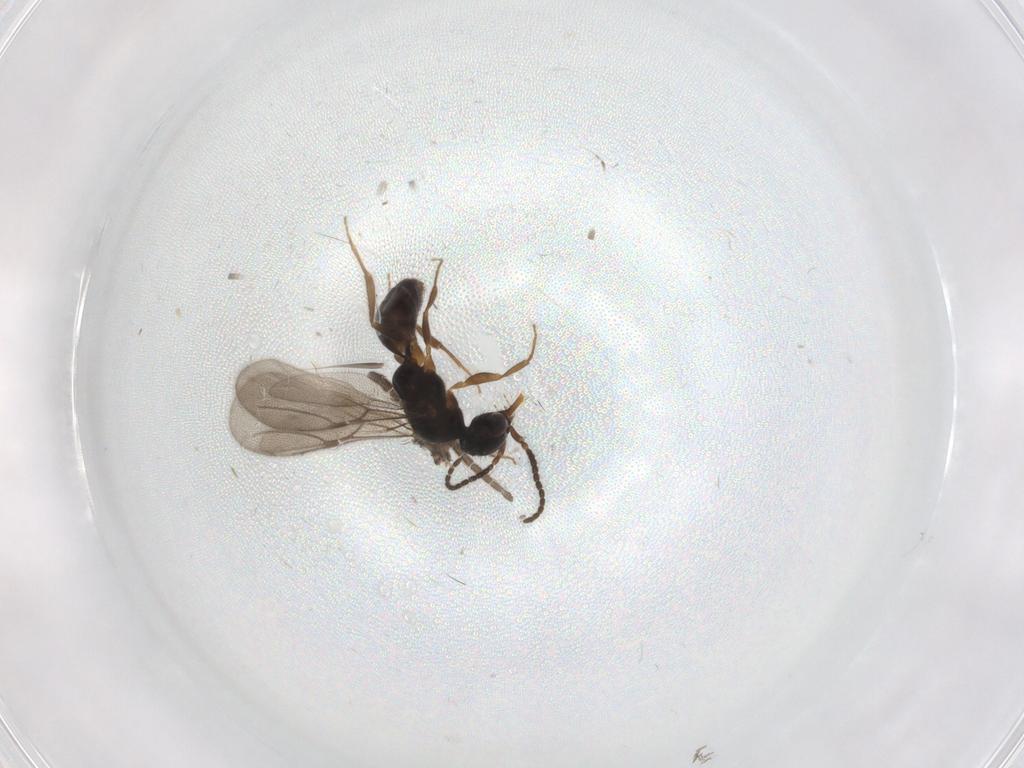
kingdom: Animalia
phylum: Arthropoda
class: Insecta
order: Hymenoptera
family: Bethylidae
